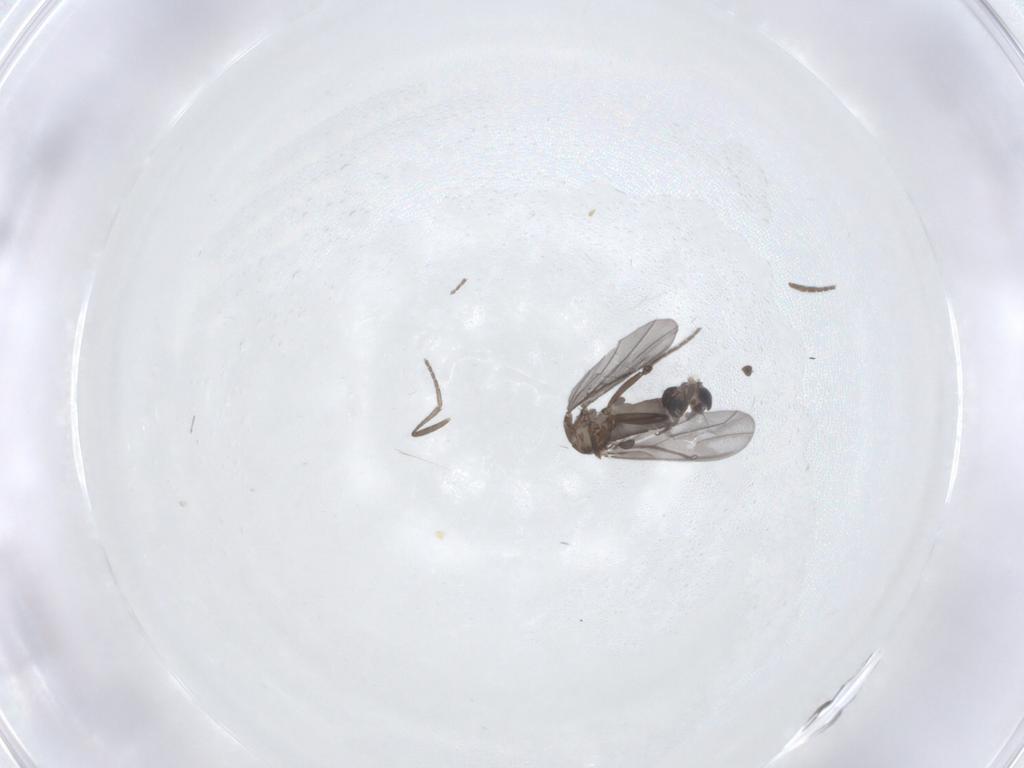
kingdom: Animalia
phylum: Arthropoda
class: Insecta
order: Diptera
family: Phoridae
